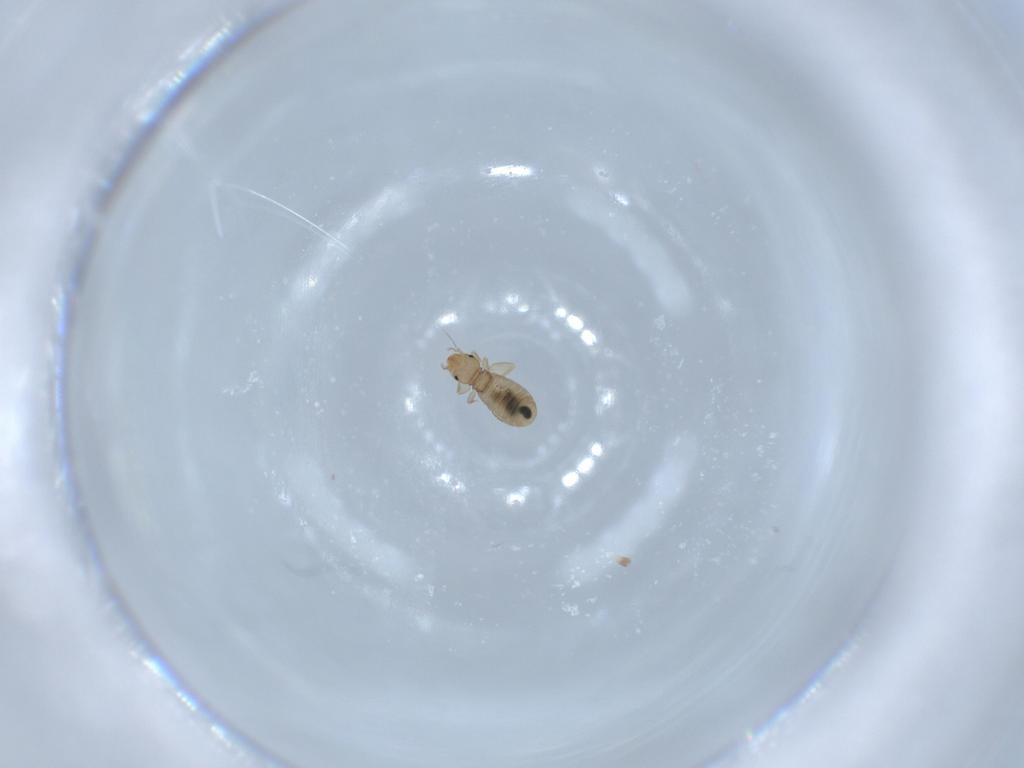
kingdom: Animalia
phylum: Arthropoda
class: Insecta
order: Psocodea
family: Liposcelididae
